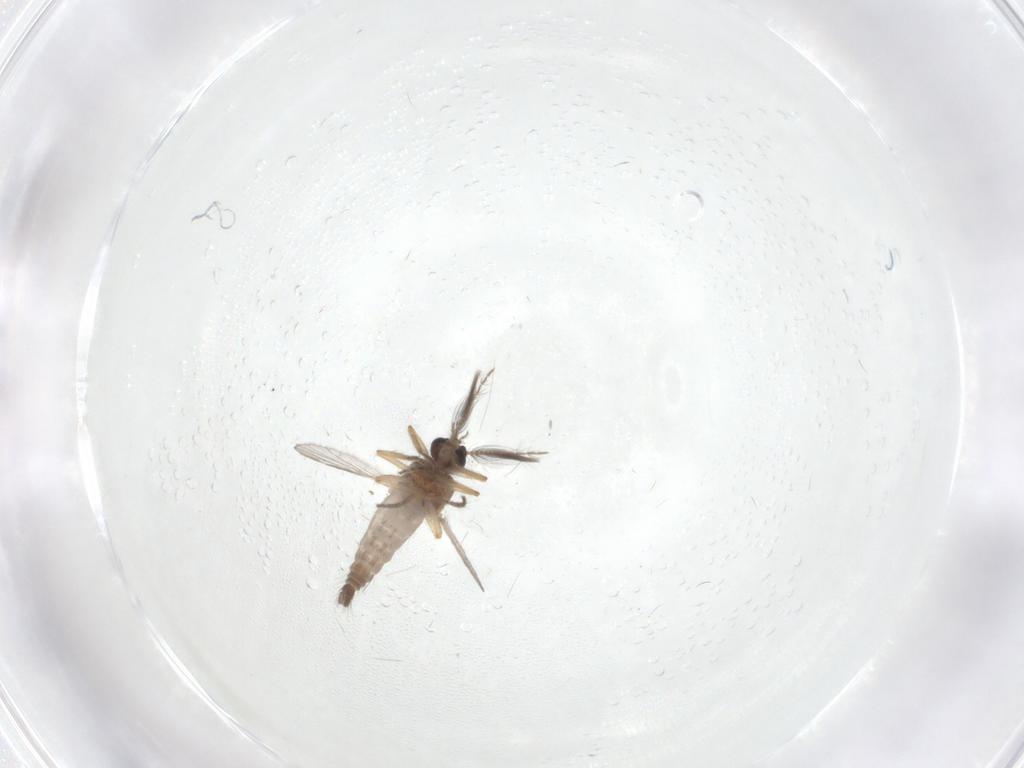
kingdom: Animalia
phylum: Arthropoda
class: Insecta
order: Diptera
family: Psychodidae
